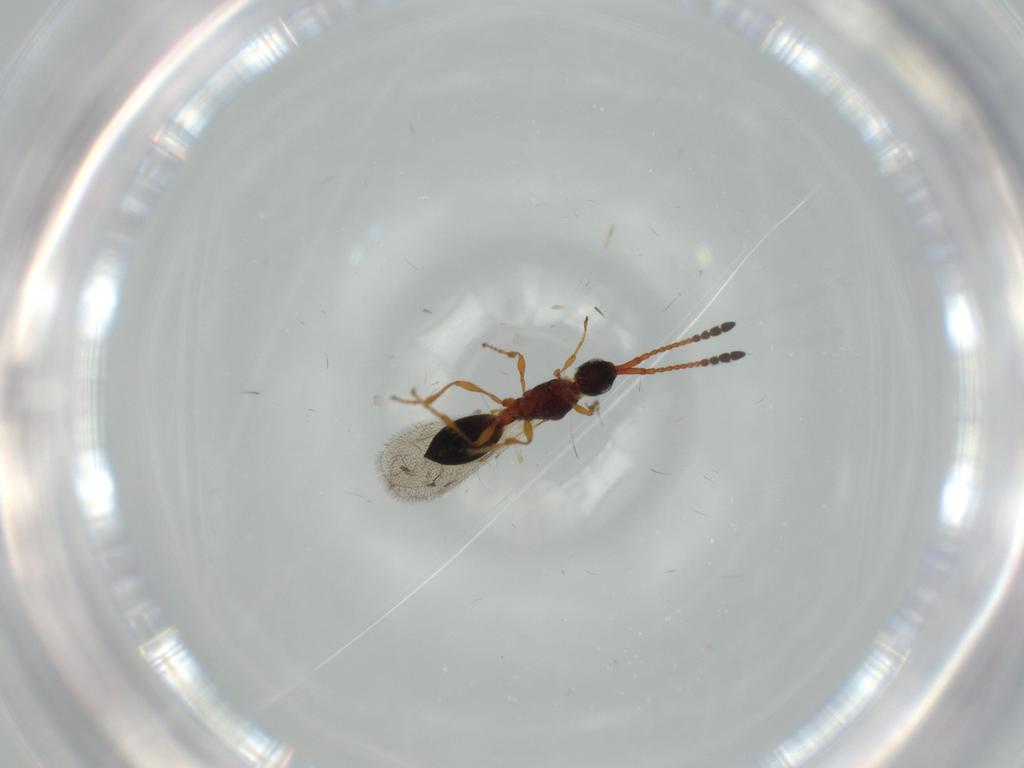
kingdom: Animalia
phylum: Arthropoda
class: Insecta
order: Hymenoptera
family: Diapriidae
